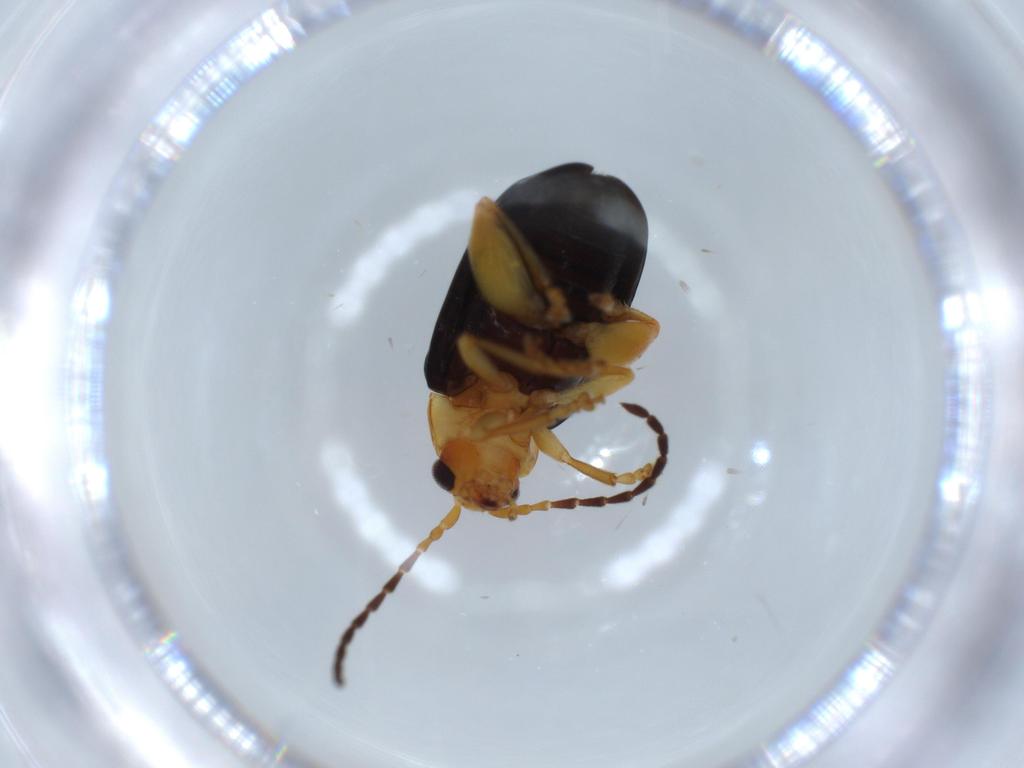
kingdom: Animalia
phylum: Arthropoda
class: Insecta
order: Coleoptera
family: Chrysomelidae
